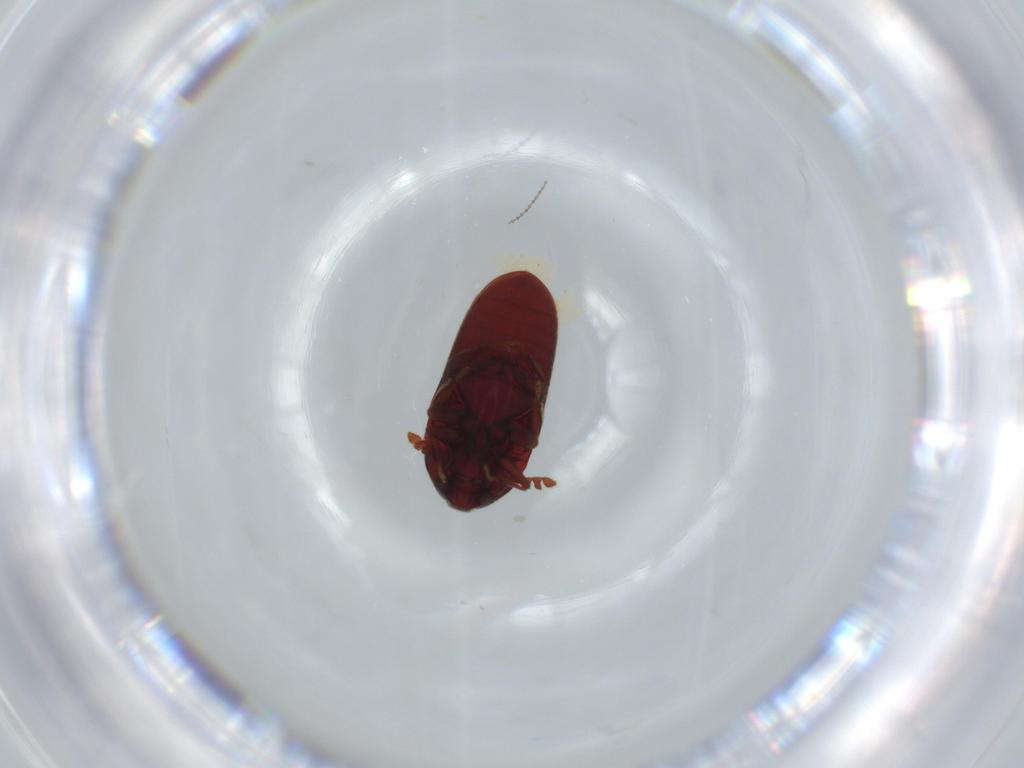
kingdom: Animalia
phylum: Arthropoda
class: Insecta
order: Coleoptera
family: Throscidae
